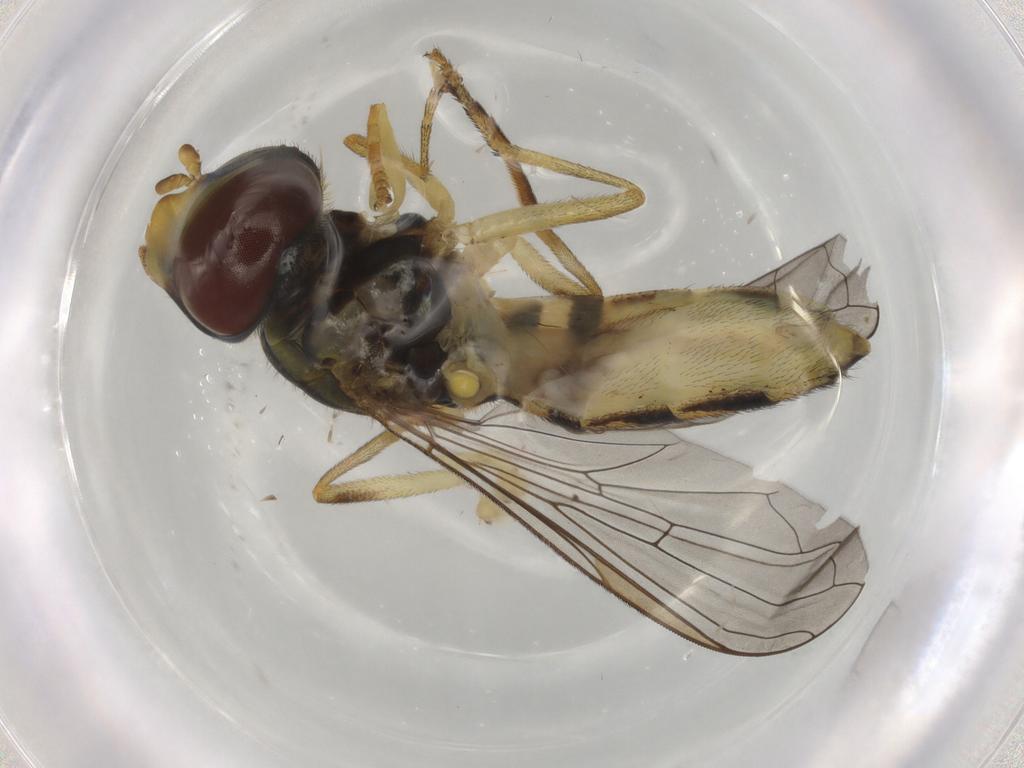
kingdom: Animalia
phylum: Arthropoda
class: Insecta
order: Diptera
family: Syrphidae
